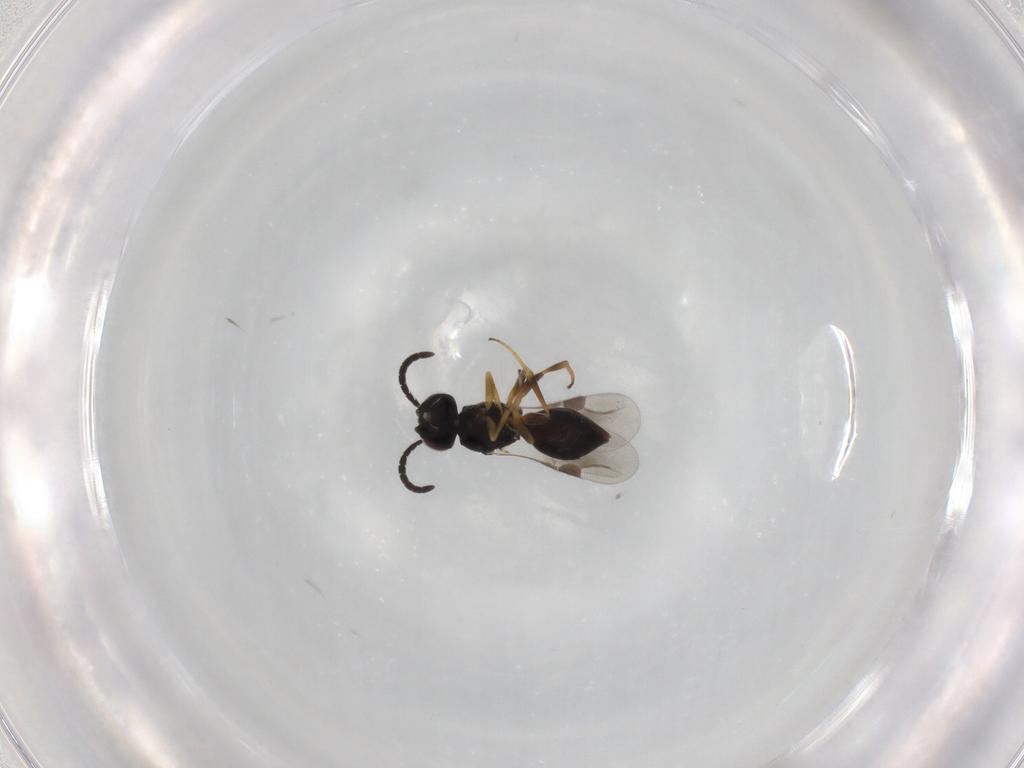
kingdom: Animalia
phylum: Arthropoda
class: Insecta
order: Hymenoptera
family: Scelionidae
